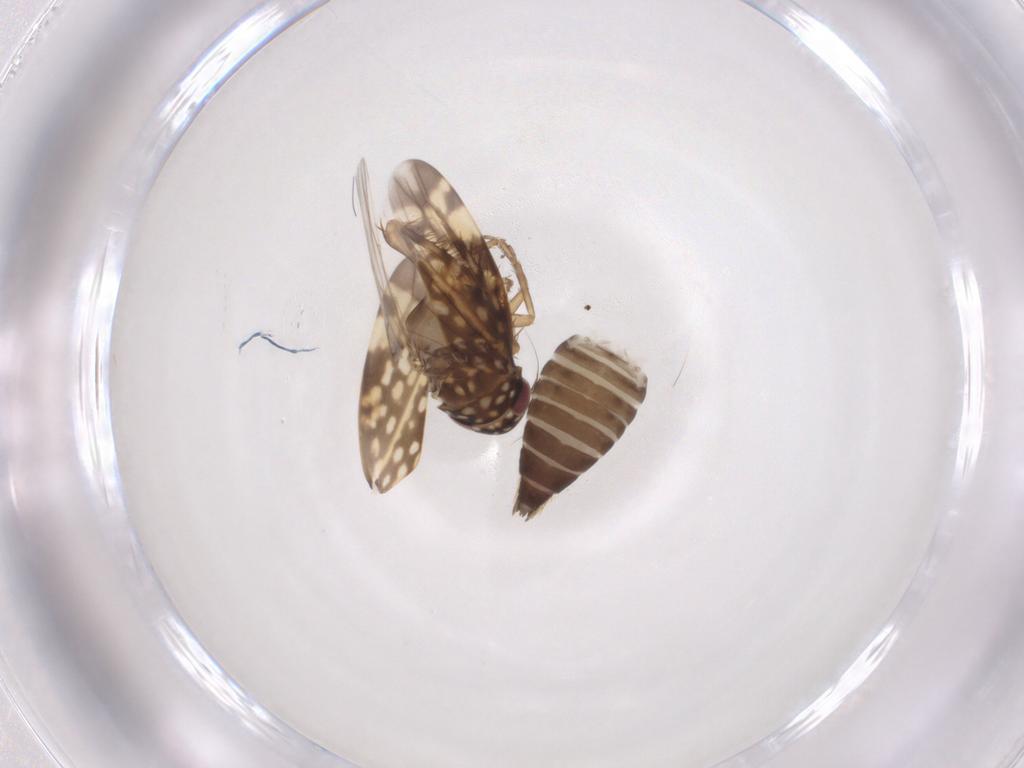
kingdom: Animalia
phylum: Arthropoda
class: Insecta
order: Hemiptera
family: Cicadellidae
